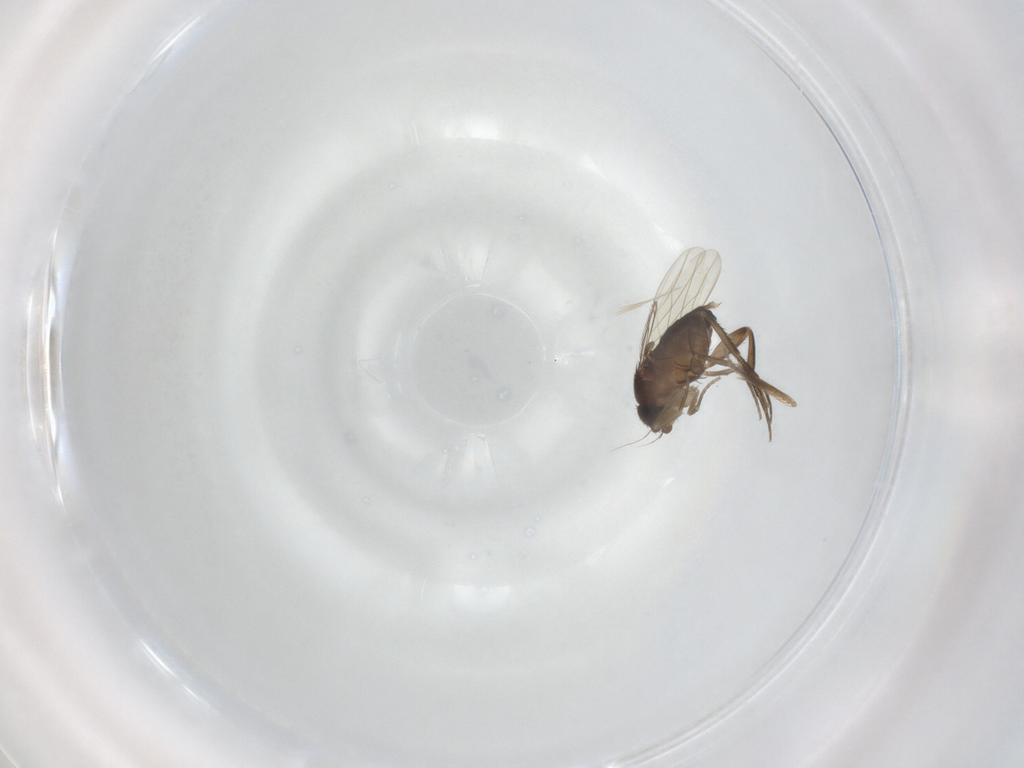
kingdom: Animalia
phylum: Arthropoda
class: Insecta
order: Diptera
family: Phoridae
